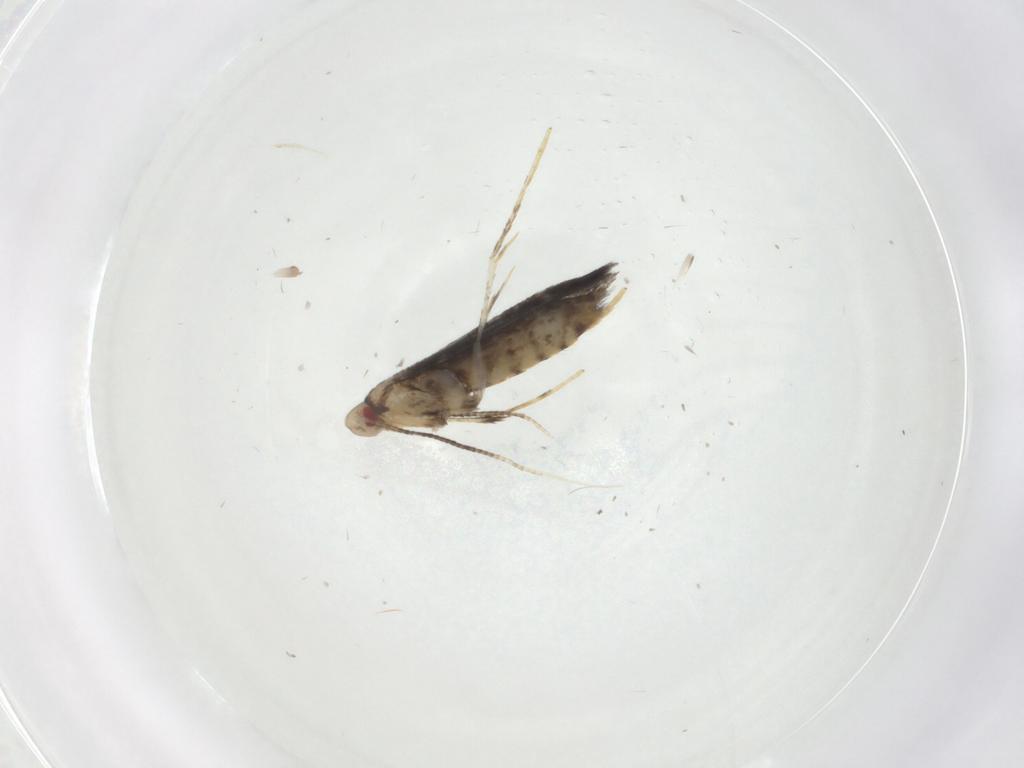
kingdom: Animalia
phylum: Arthropoda
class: Insecta
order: Lepidoptera
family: Gracillariidae
